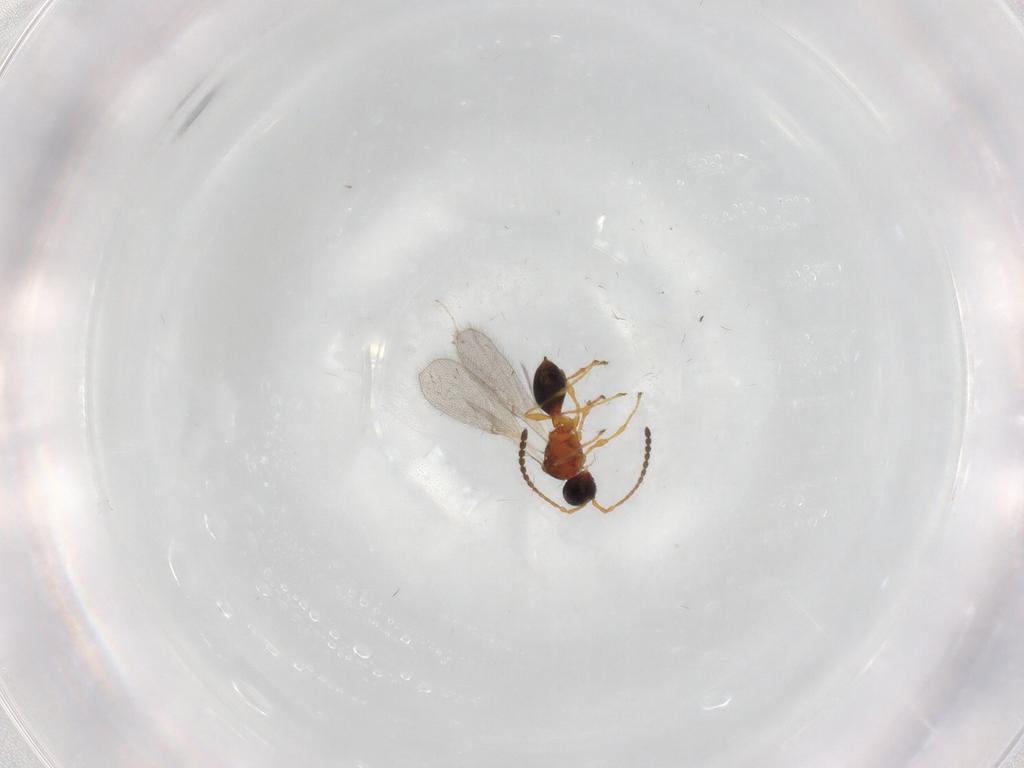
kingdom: Animalia
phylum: Arthropoda
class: Insecta
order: Hymenoptera
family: Diapriidae
